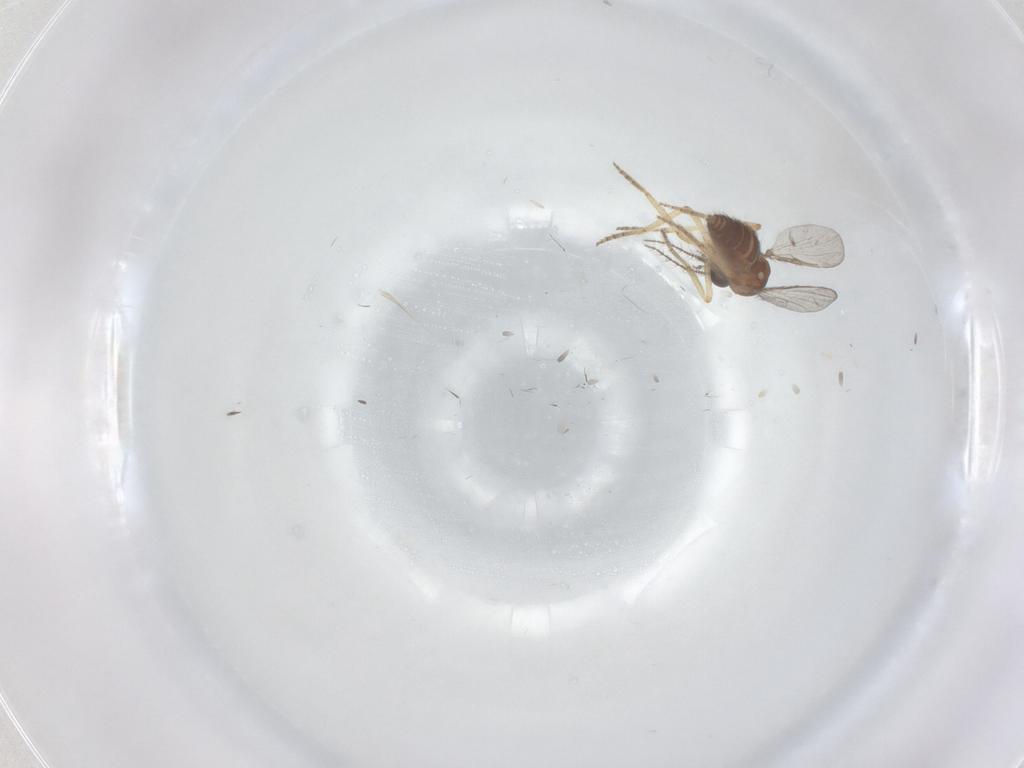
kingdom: Animalia
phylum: Arthropoda
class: Insecta
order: Diptera
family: Ceratopogonidae
